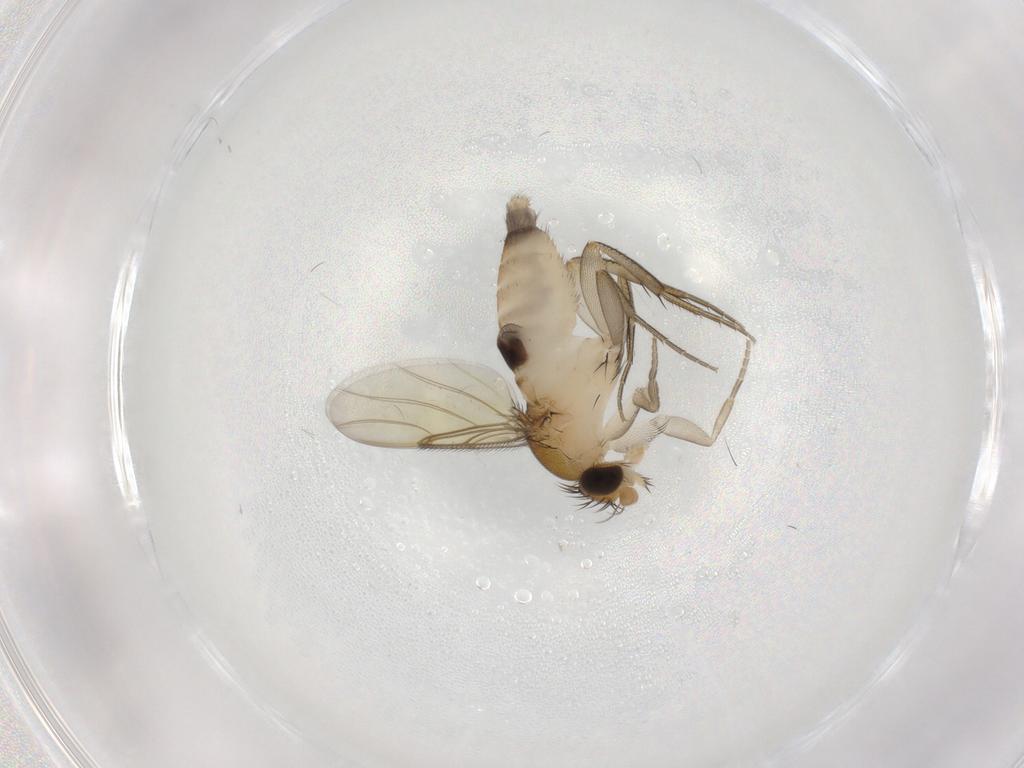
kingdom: Animalia
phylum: Arthropoda
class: Insecta
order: Diptera
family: Phoridae
